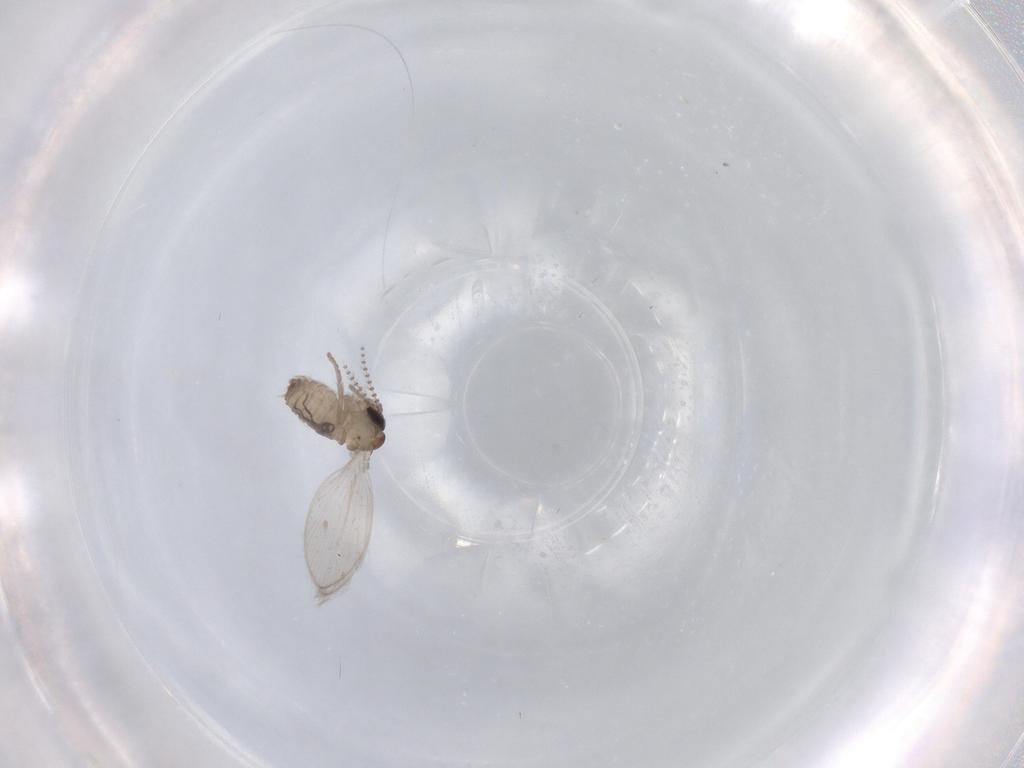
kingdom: Animalia
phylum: Arthropoda
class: Insecta
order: Diptera
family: Psychodidae
